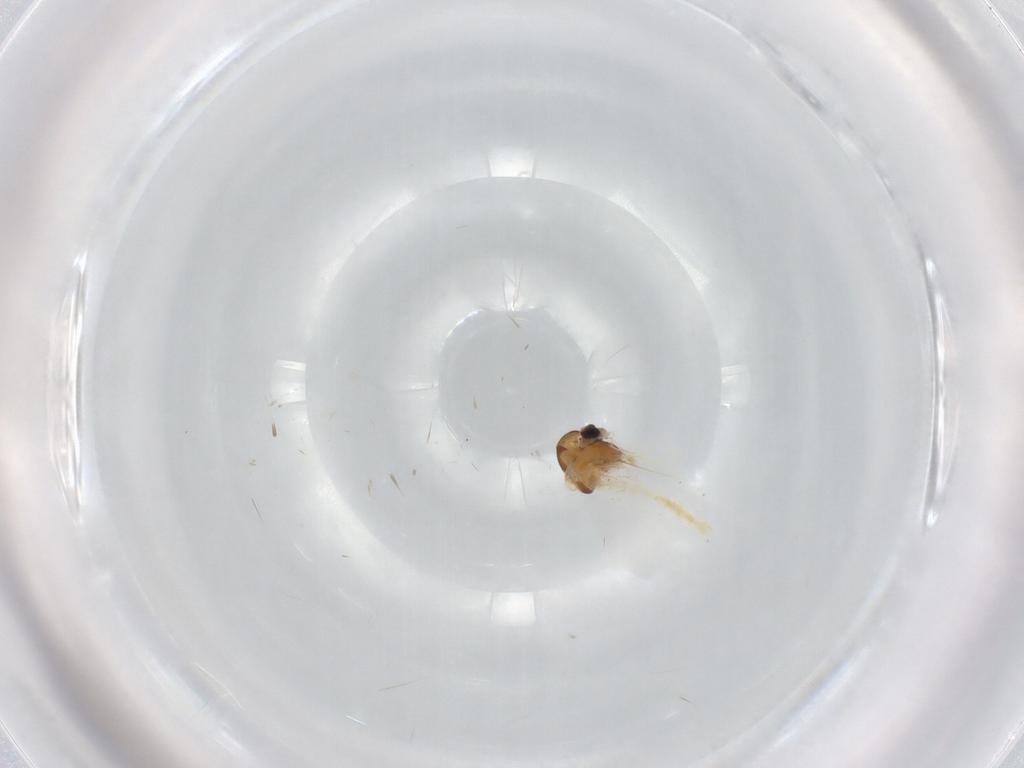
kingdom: Animalia
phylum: Arthropoda
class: Insecta
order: Diptera
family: Chironomidae
